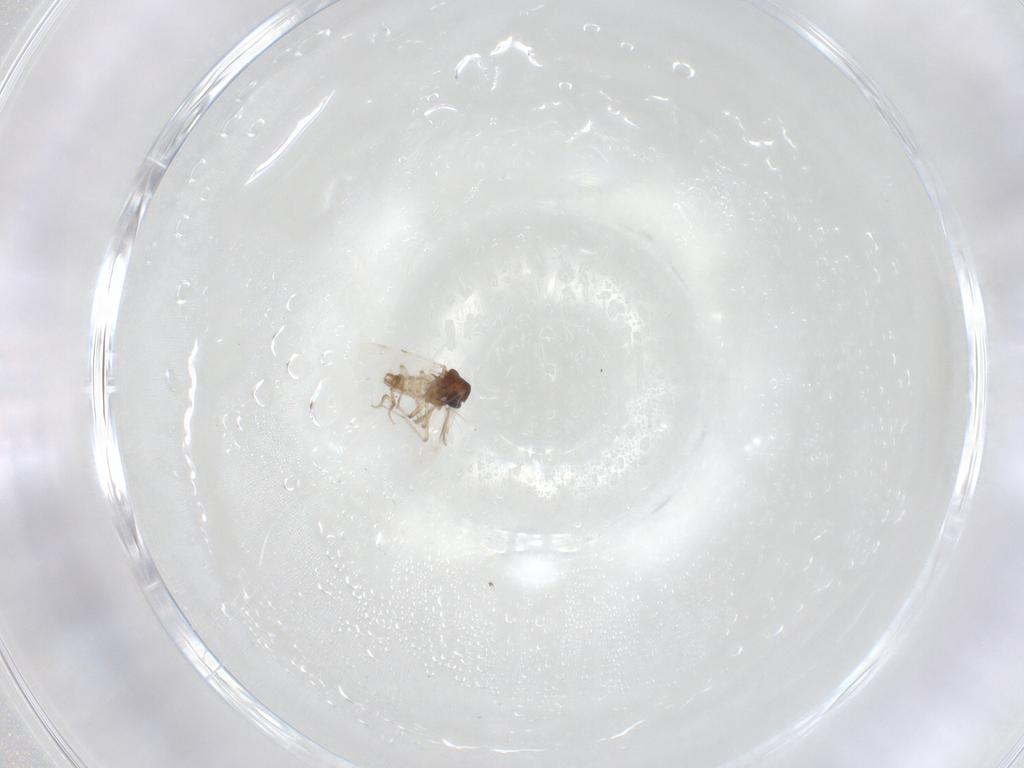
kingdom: Animalia
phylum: Arthropoda
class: Insecta
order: Diptera
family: Ceratopogonidae
